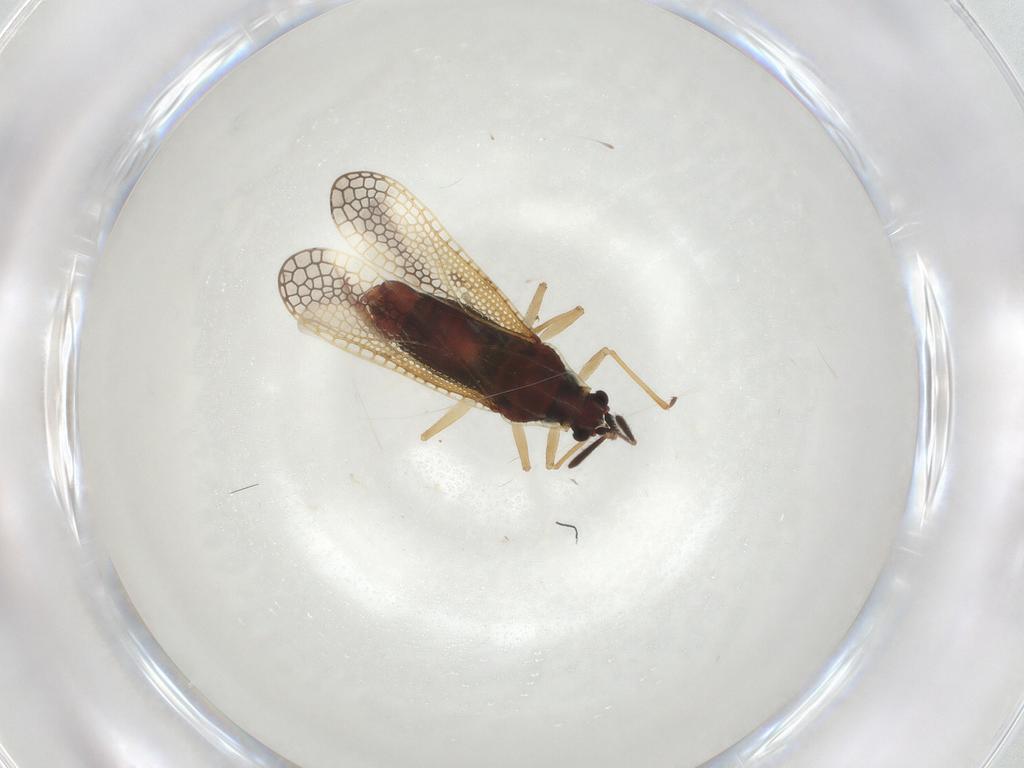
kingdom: Animalia
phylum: Arthropoda
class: Insecta
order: Hemiptera
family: Tingidae
